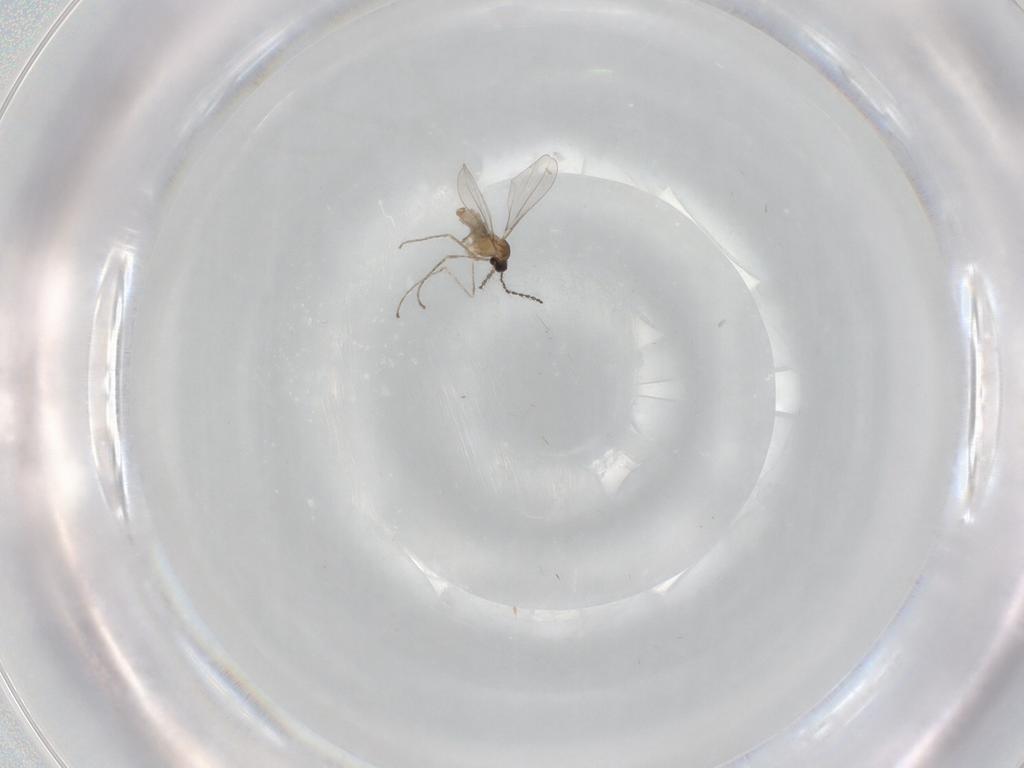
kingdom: Animalia
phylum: Arthropoda
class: Insecta
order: Diptera
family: Cecidomyiidae
